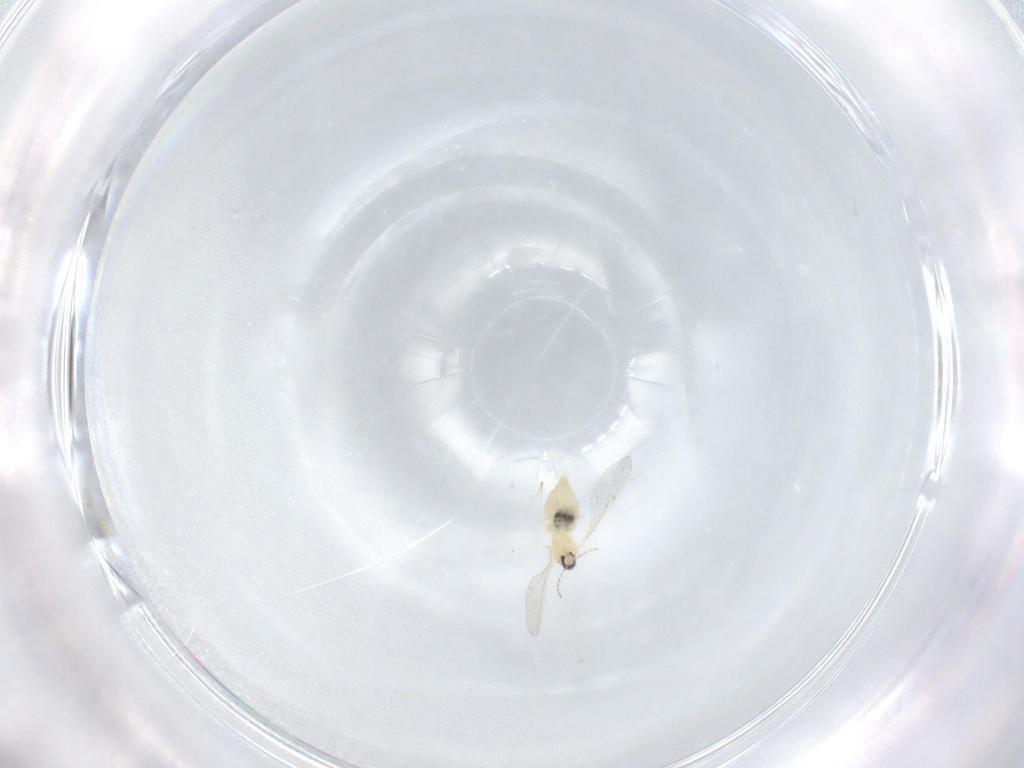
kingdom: Animalia
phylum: Arthropoda
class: Insecta
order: Diptera
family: Cecidomyiidae
